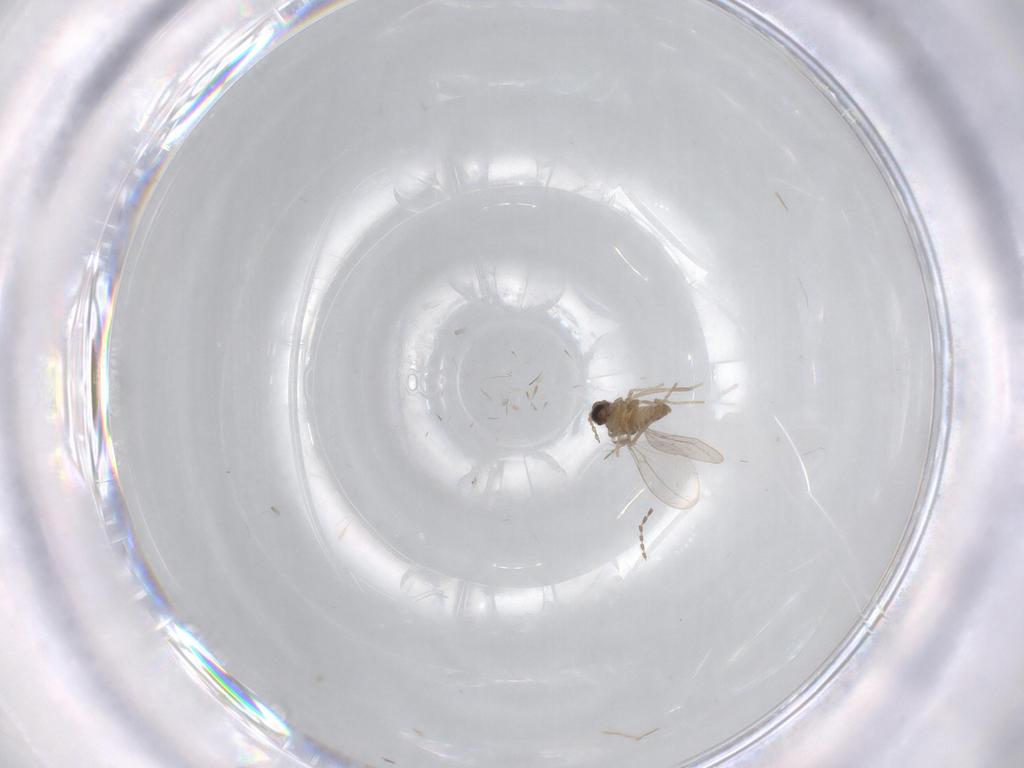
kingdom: Animalia
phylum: Arthropoda
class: Insecta
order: Diptera
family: Cecidomyiidae
